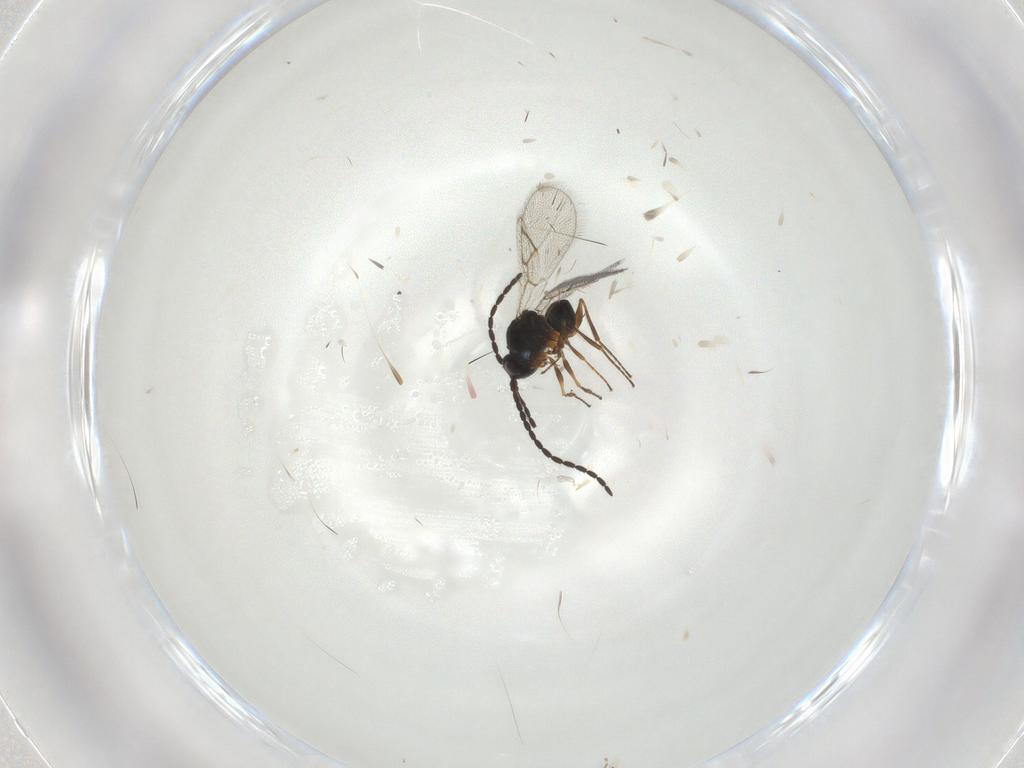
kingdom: Animalia
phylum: Arthropoda
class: Insecta
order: Hymenoptera
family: Figitidae
